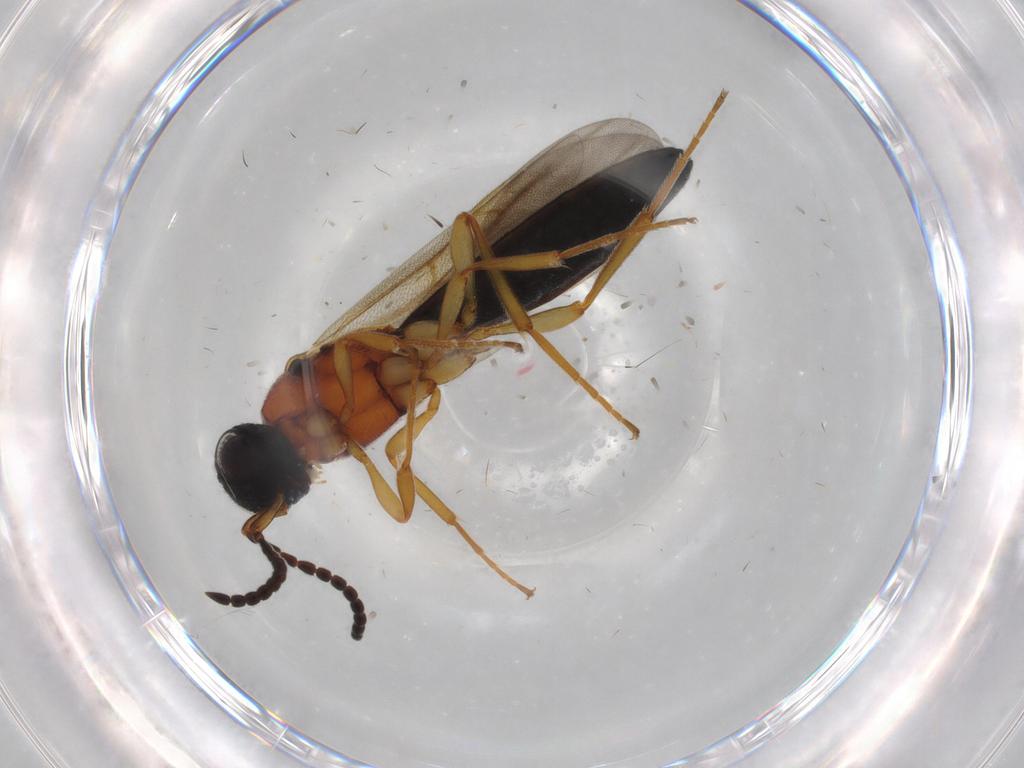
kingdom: Animalia
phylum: Arthropoda
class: Insecta
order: Hymenoptera
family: Scelionidae
